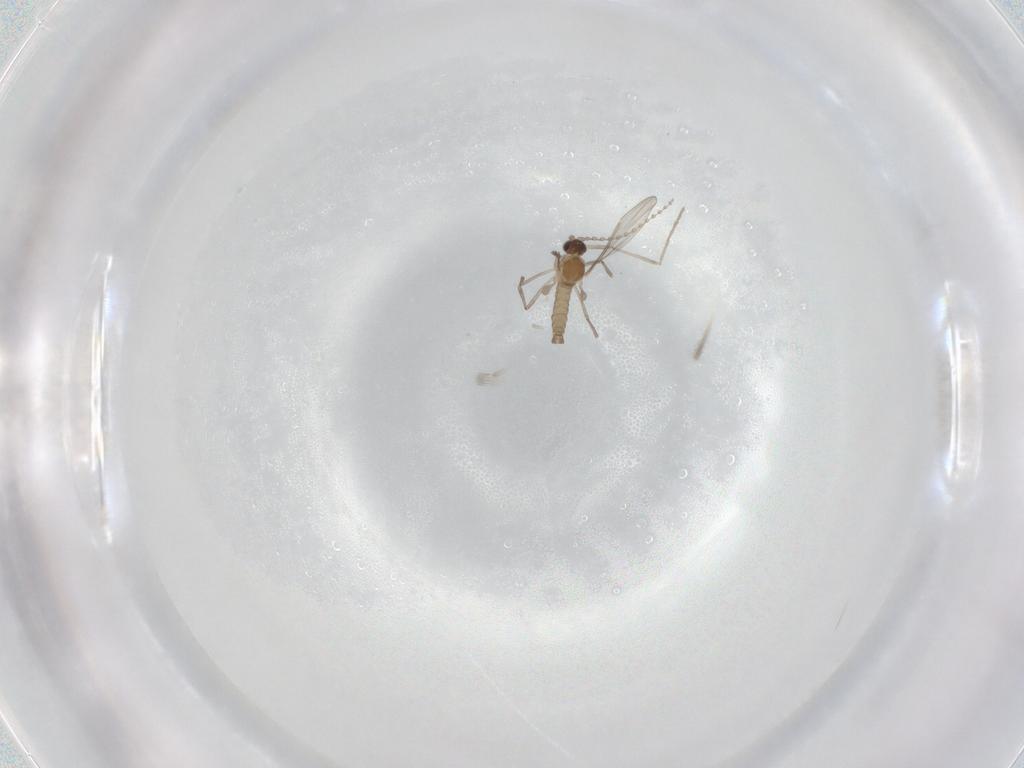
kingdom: Animalia
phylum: Arthropoda
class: Insecta
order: Diptera
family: Cecidomyiidae
